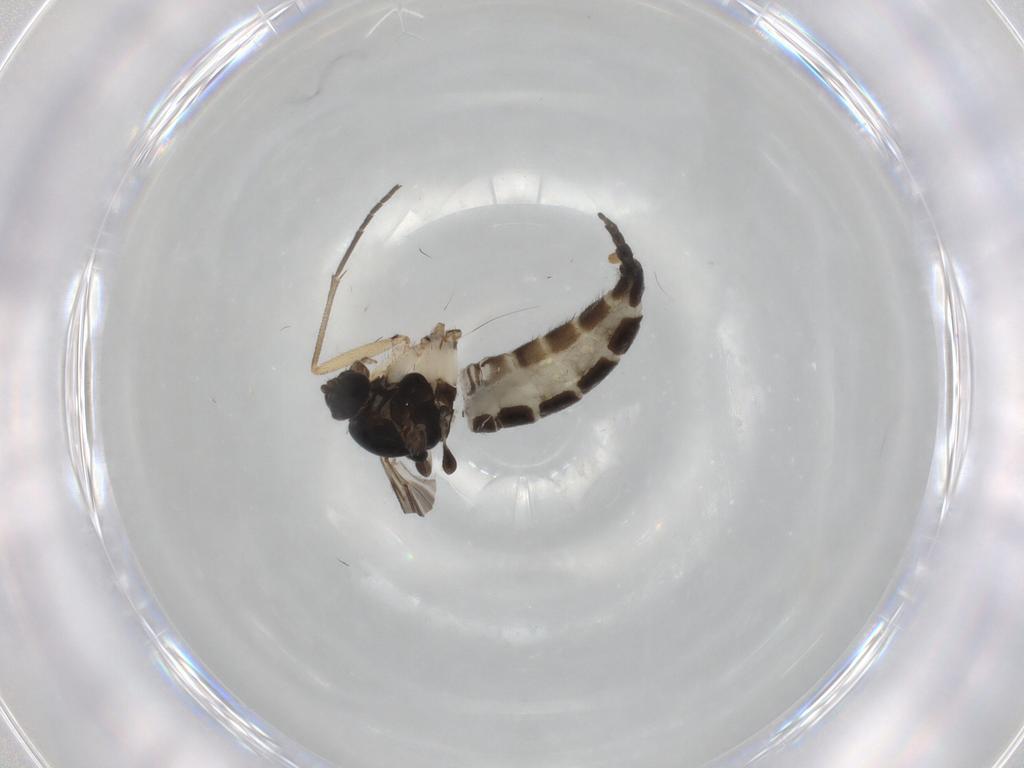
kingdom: Animalia
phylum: Arthropoda
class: Insecta
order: Diptera
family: Sciaridae
